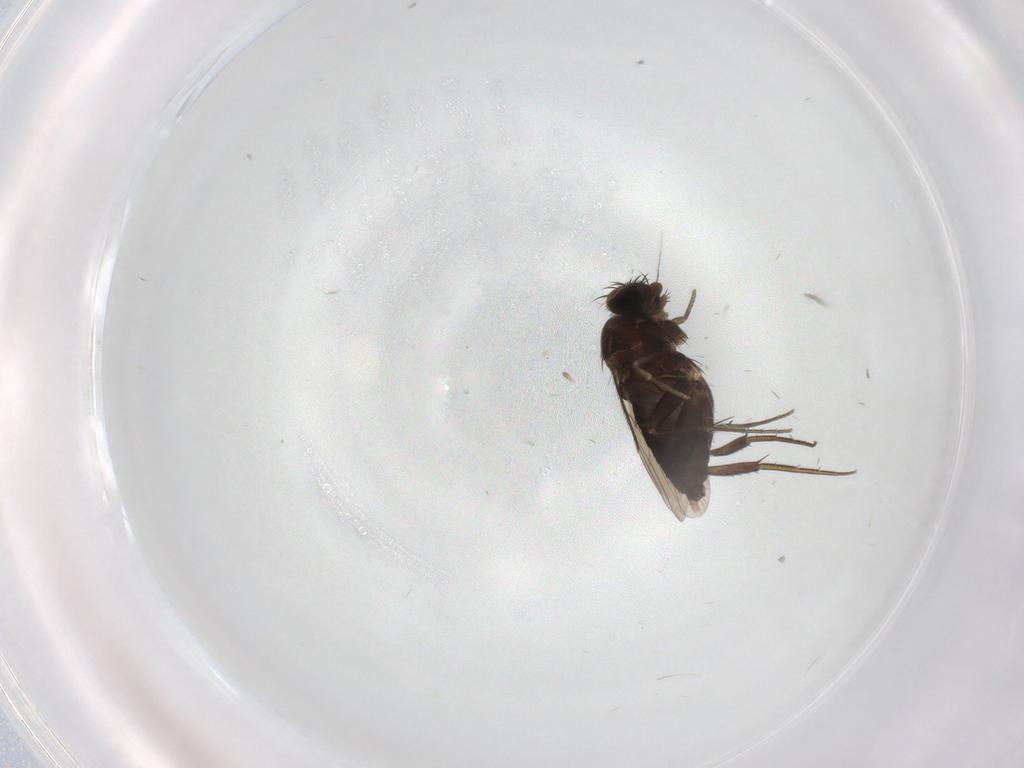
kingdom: Animalia
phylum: Arthropoda
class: Insecta
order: Diptera
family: Phoridae
